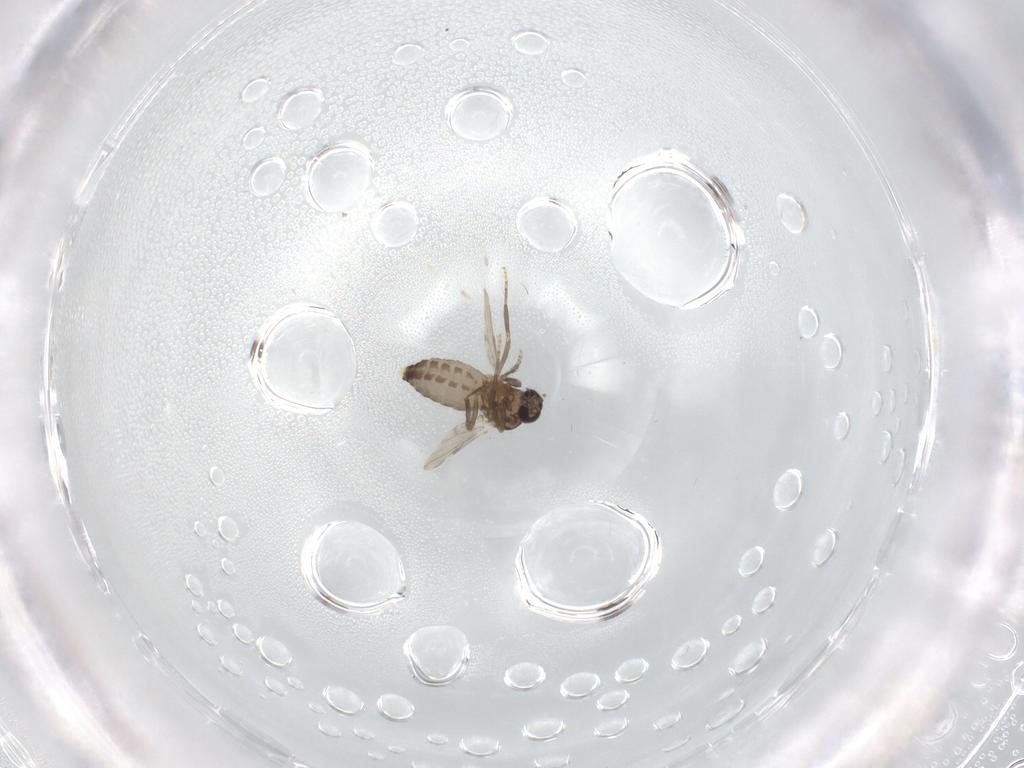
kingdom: Animalia
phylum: Arthropoda
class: Insecta
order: Diptera
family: Ceratopogonidae
